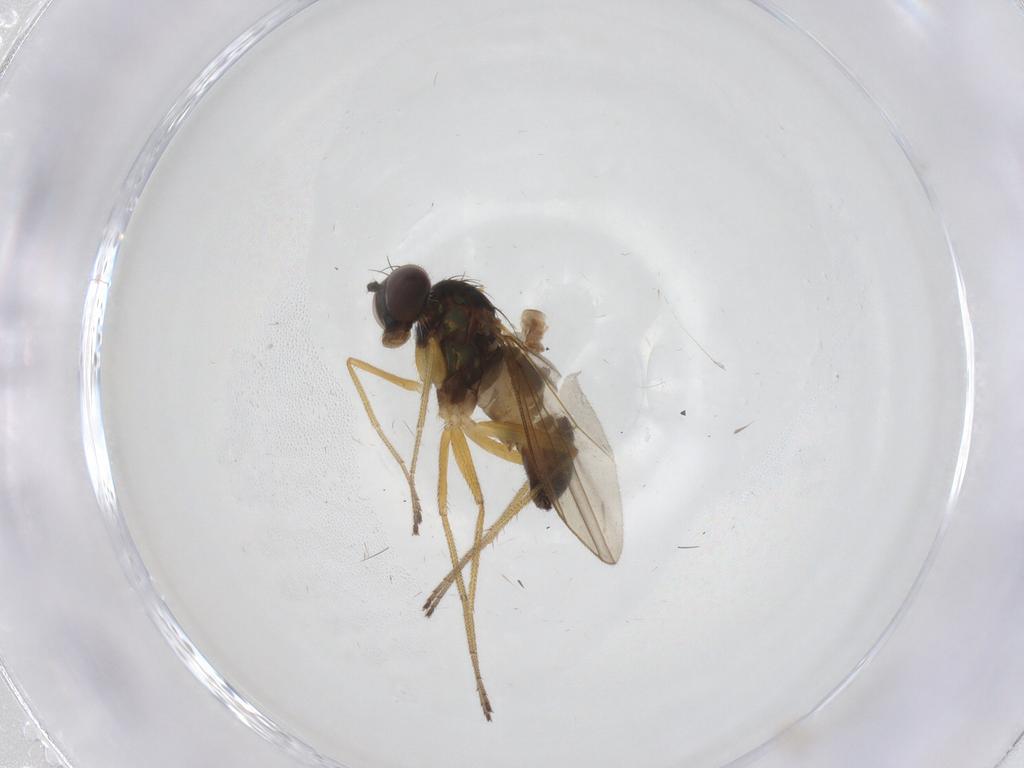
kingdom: Animalia
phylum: Arthropoda
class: Insecta
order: Diptera
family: Dolichopodidae
